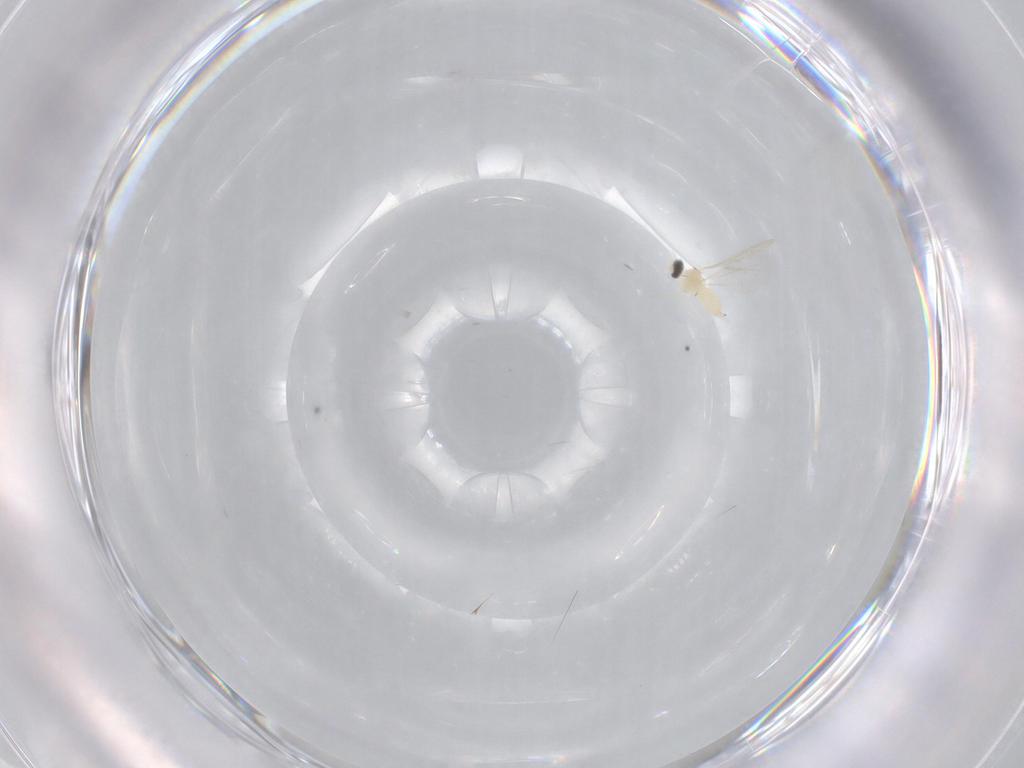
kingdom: Animalia
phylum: Arthropoda
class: Insecta
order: Diptera
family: Cecidomyiidae
